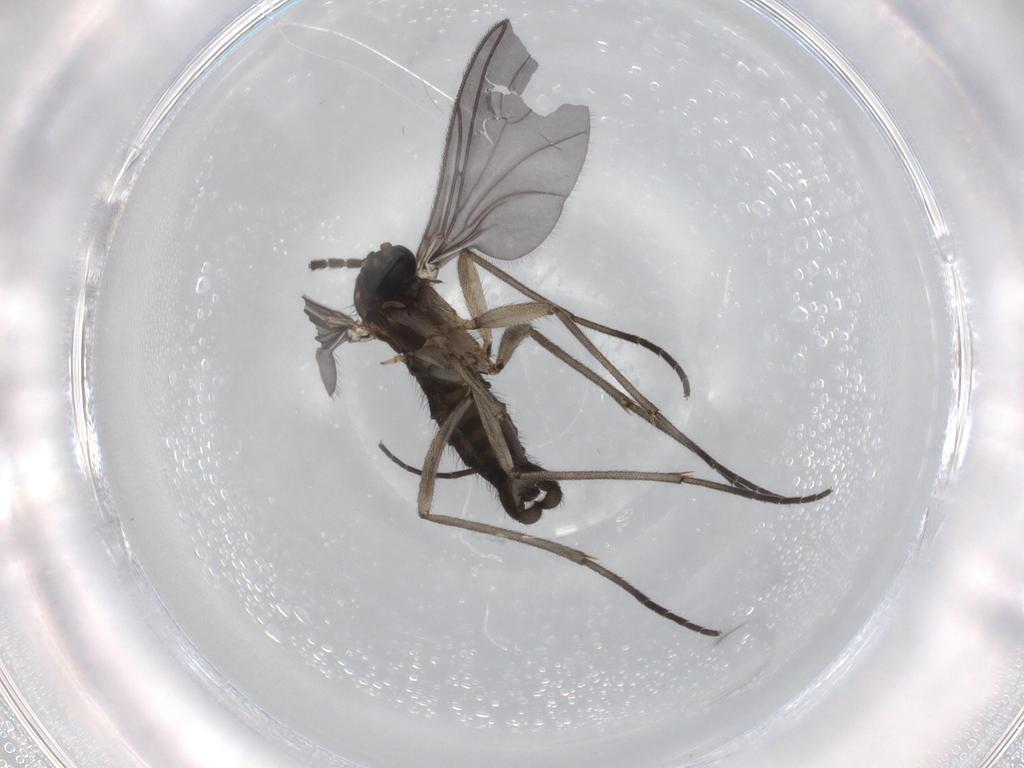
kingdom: Animalia
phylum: Arthropoda
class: Insecta
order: Diptera
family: Sciaridae
